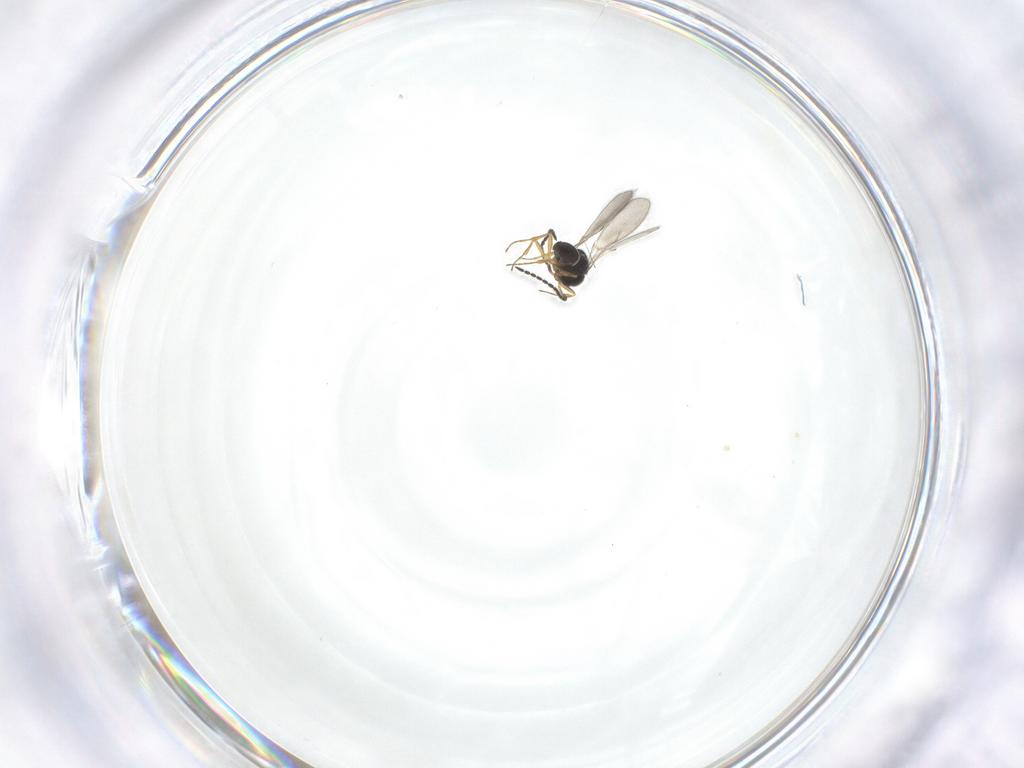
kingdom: Animalia
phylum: Arthropoda
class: Insecta
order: Hymenoptera
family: Scelionidae
